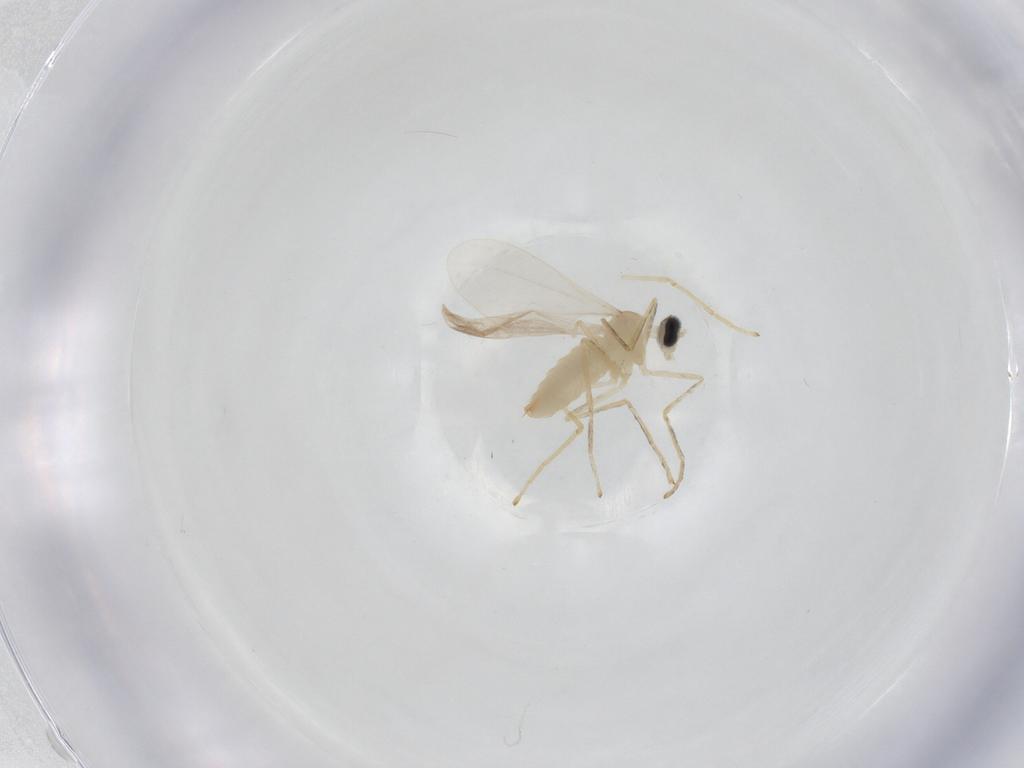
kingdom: Animalia
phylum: Arthropoda
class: Insecta
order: Diptera
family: Cecidomyiidae
